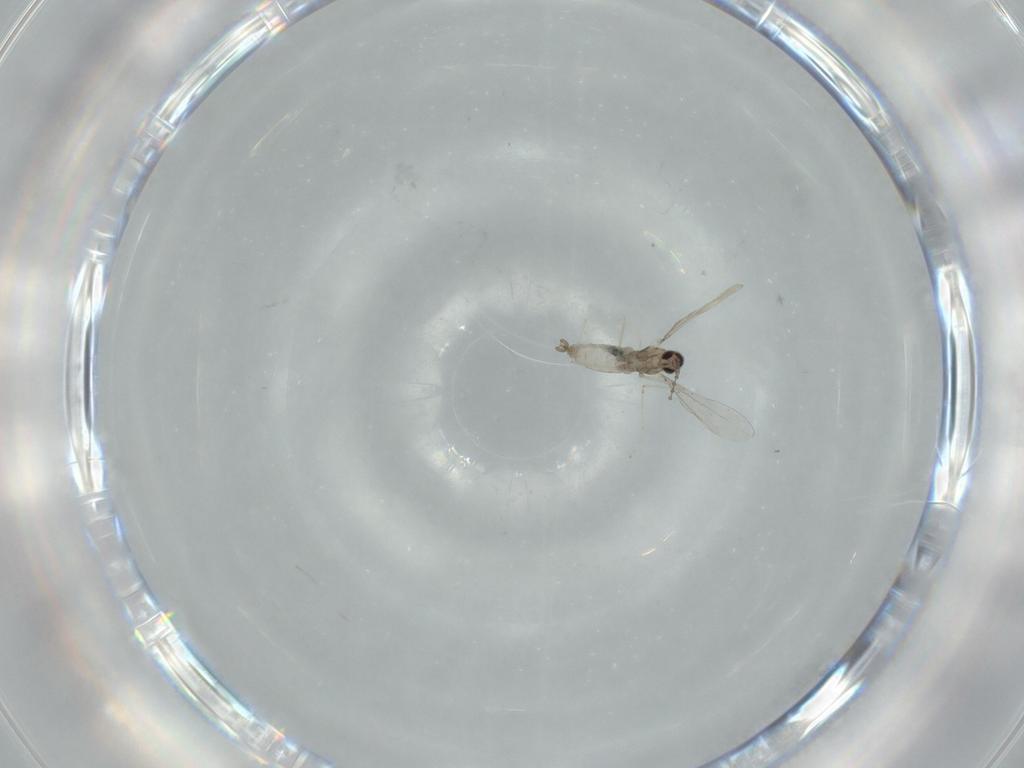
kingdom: Animalia
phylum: Arthropoda
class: Insecta
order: Diptera
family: Cecidomyiidae
